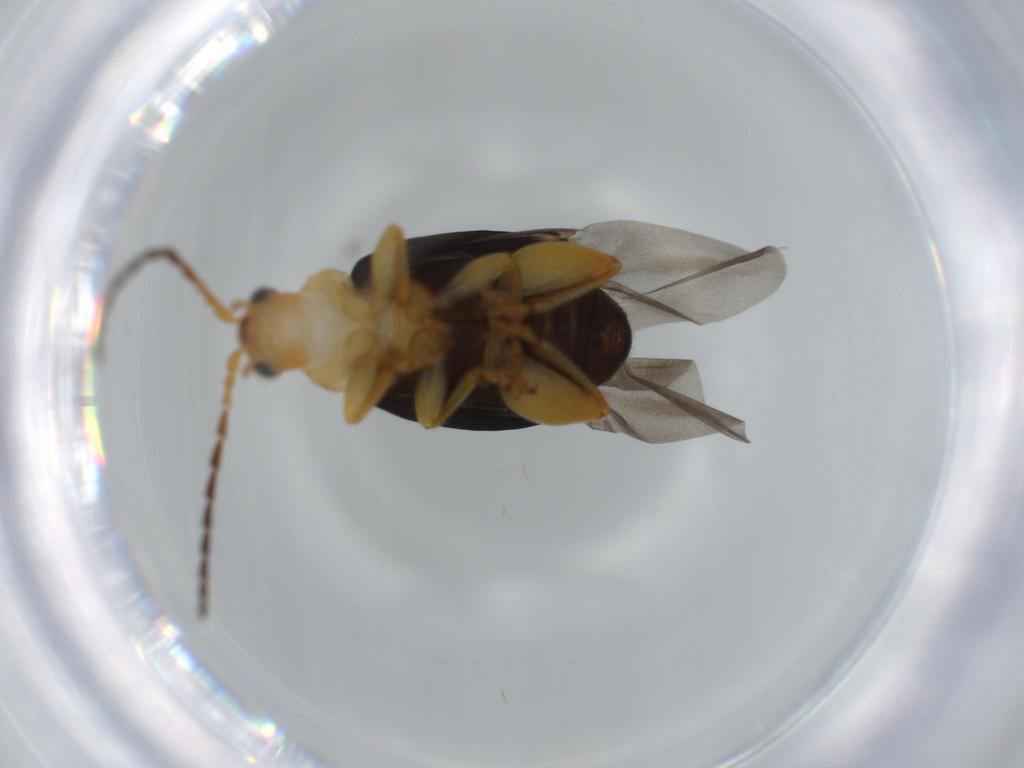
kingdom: Animalia
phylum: Arthropoda
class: Insecta
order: Coleoptera
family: Chrysomelidae
